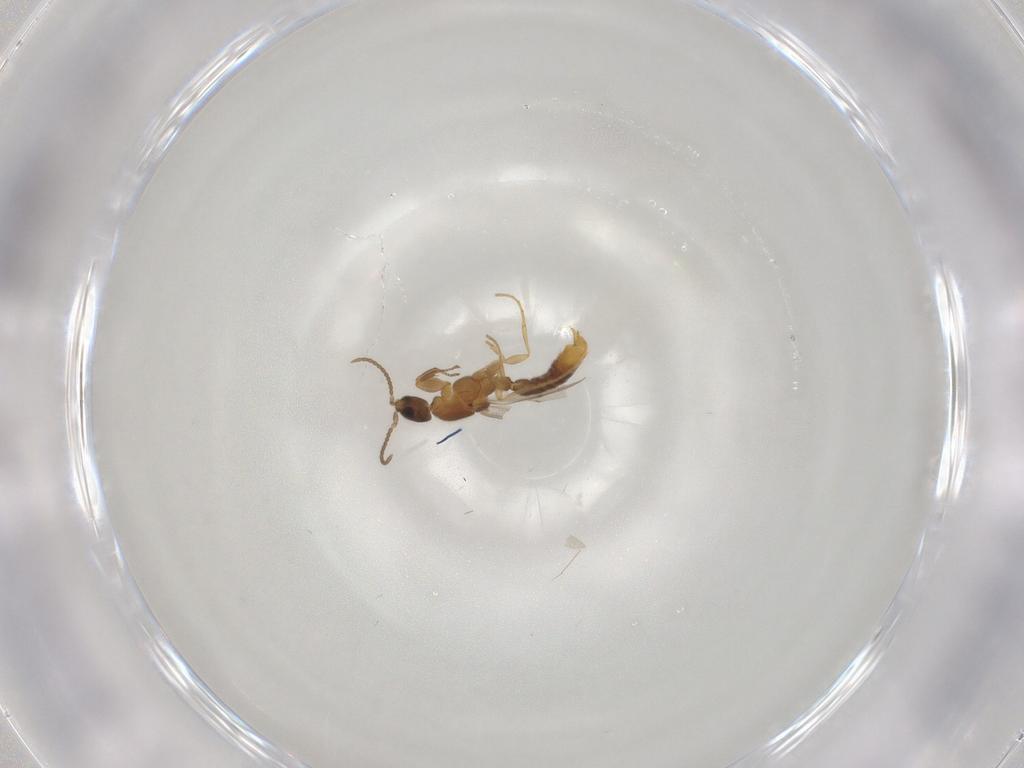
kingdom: Animalia
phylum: Arthropoda
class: Insecta
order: Hymenoptera
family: Formicidae
